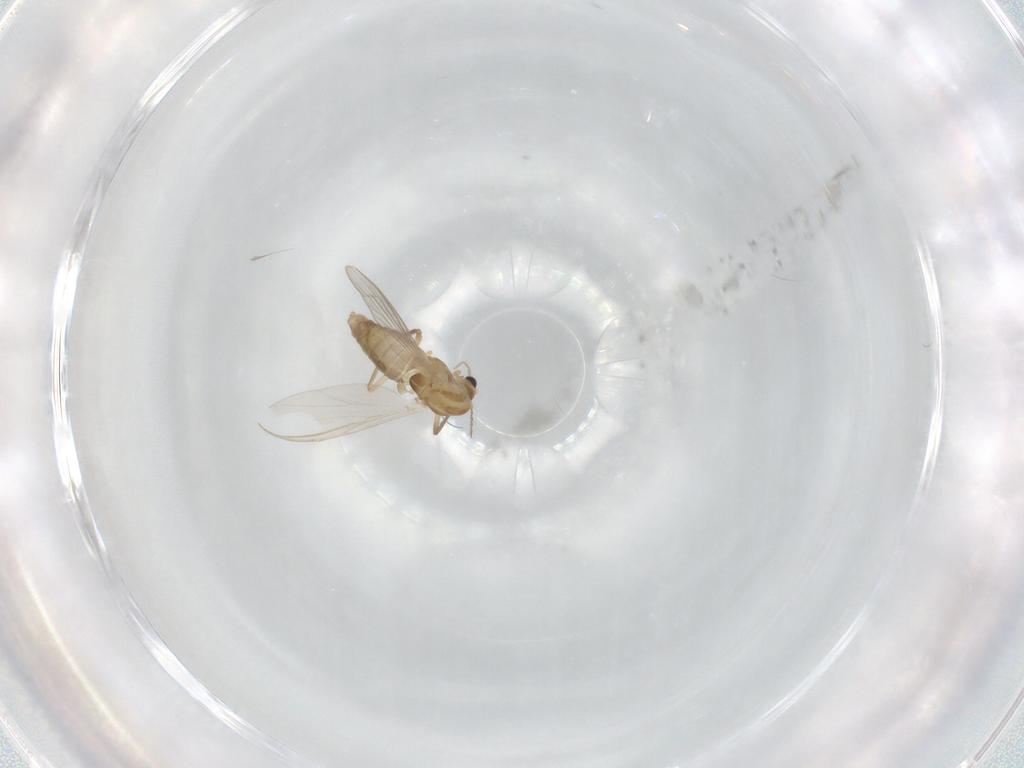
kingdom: Animalia
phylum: Arthropoda
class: Insecta
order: Diptera
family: Chironomidae
